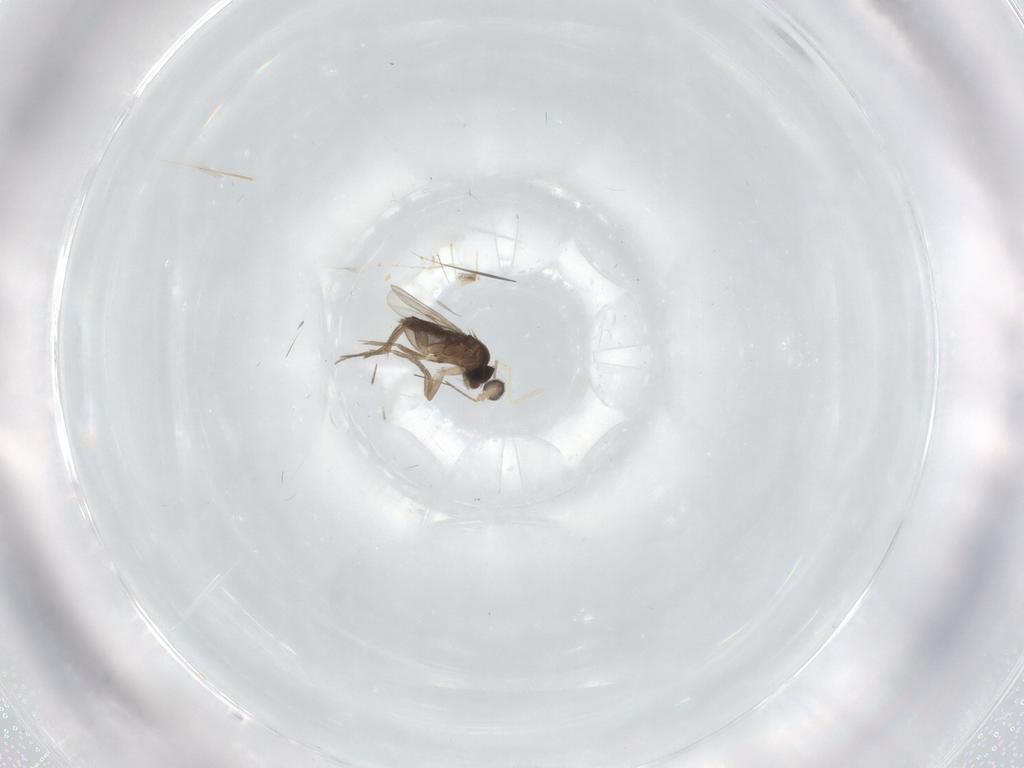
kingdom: Animalia
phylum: Arthropoda
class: Insecta
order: Diptera
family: Cecidomyiidae
